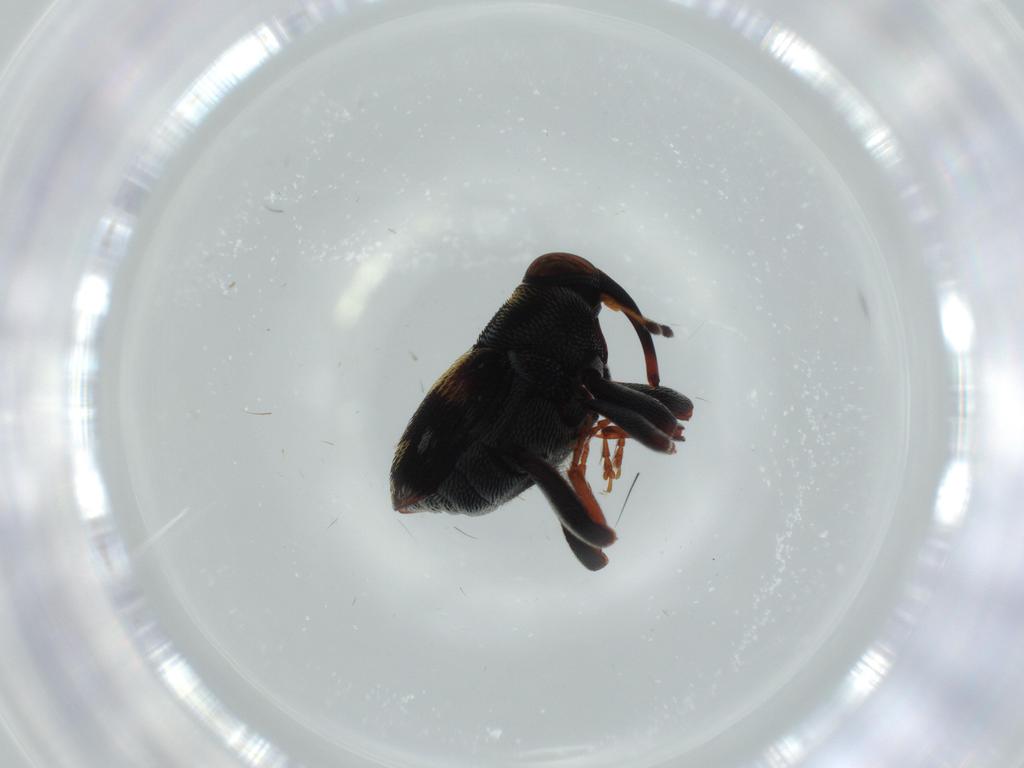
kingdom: Animalia
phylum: Arthropoda
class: Insecta
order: Coleoptera
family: Curculionidae
